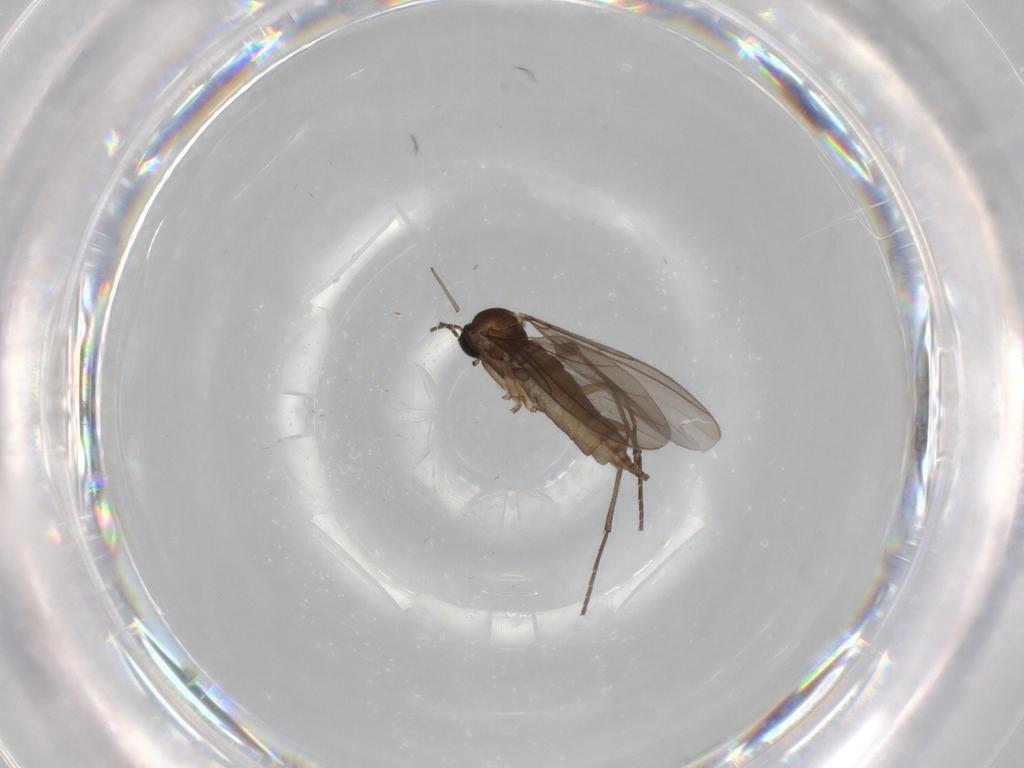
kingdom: Animalia
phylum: Arthropoda
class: Insecta
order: Diptera
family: Sciaridae
